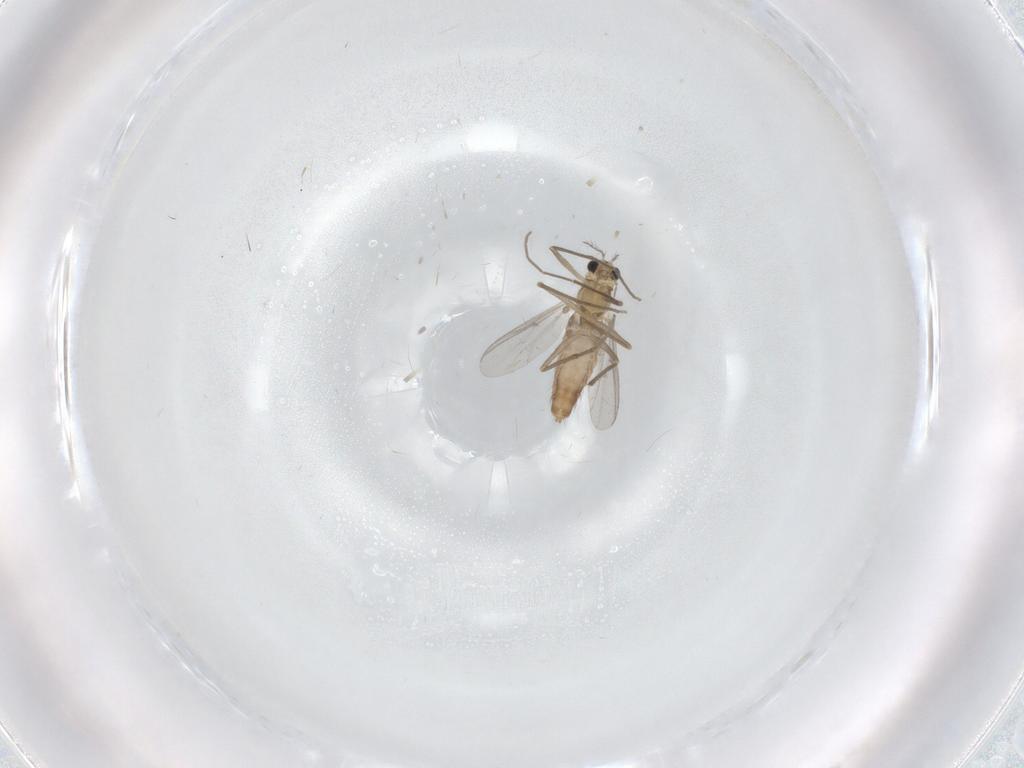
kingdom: Animalia
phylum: Arthropoda
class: Insecta
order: Diptera
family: Chironomidae
